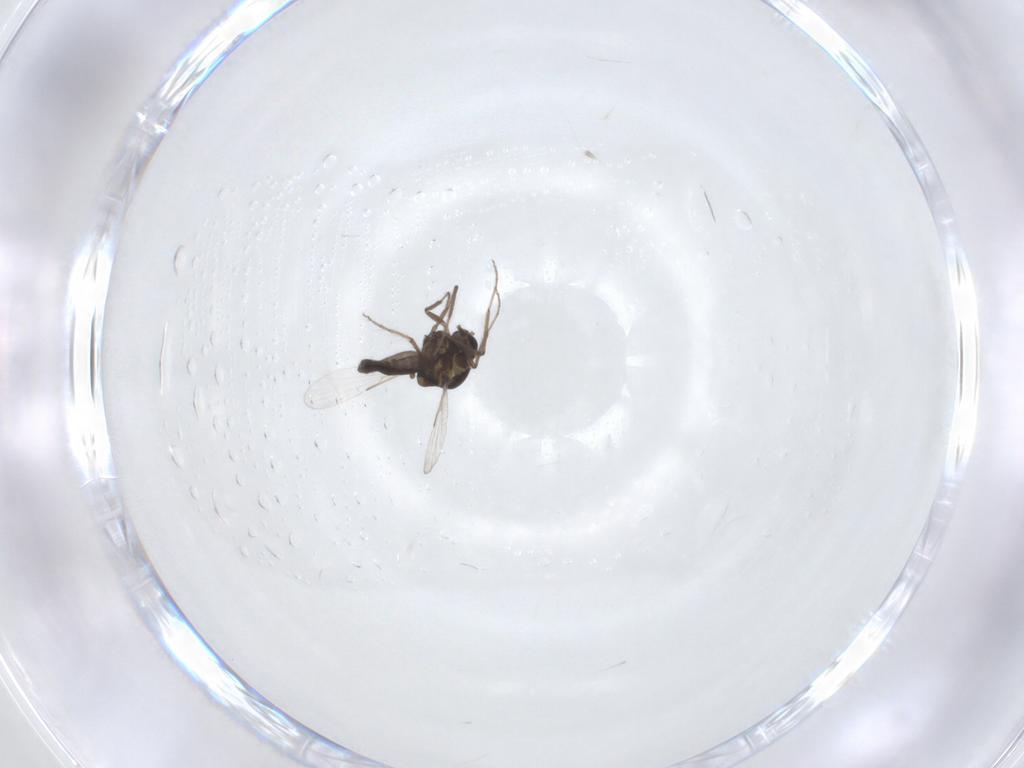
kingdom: Animalia
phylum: Arthropoda
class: Insecta
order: Diptera
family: Ceratopogonidae
